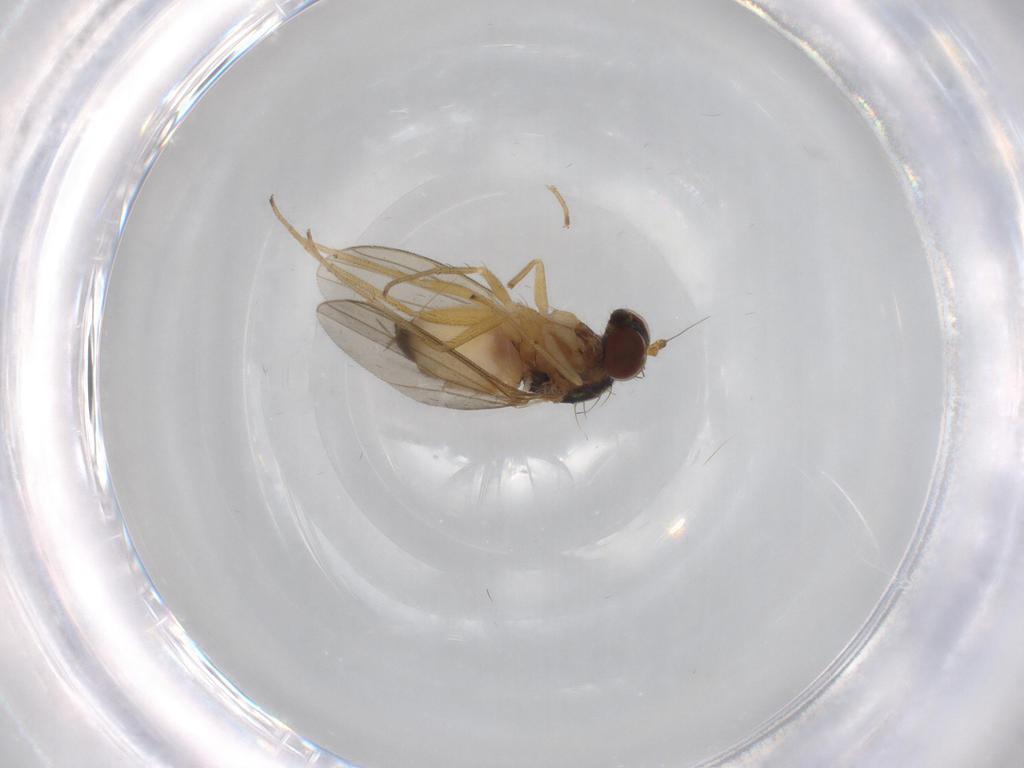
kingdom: Animalia
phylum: Arthropoda
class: Insecta
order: Diptera
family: Dolichopodidae
